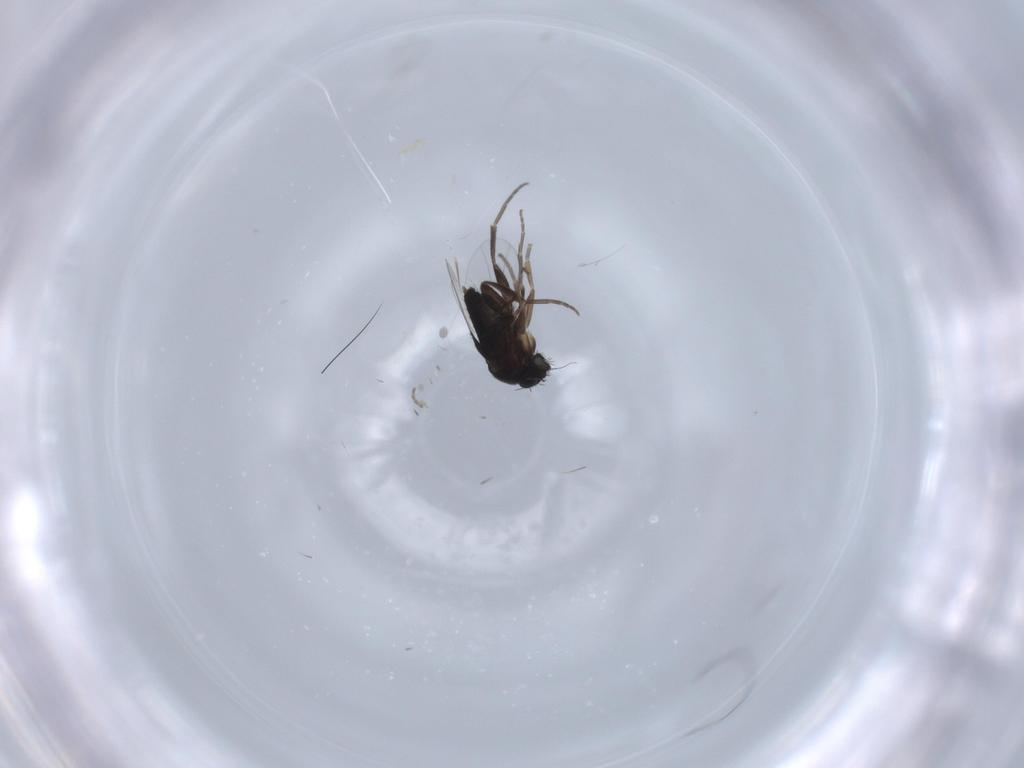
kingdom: Animalia
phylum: Arthropoda
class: Insecta
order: Diptera
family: Phoridae
